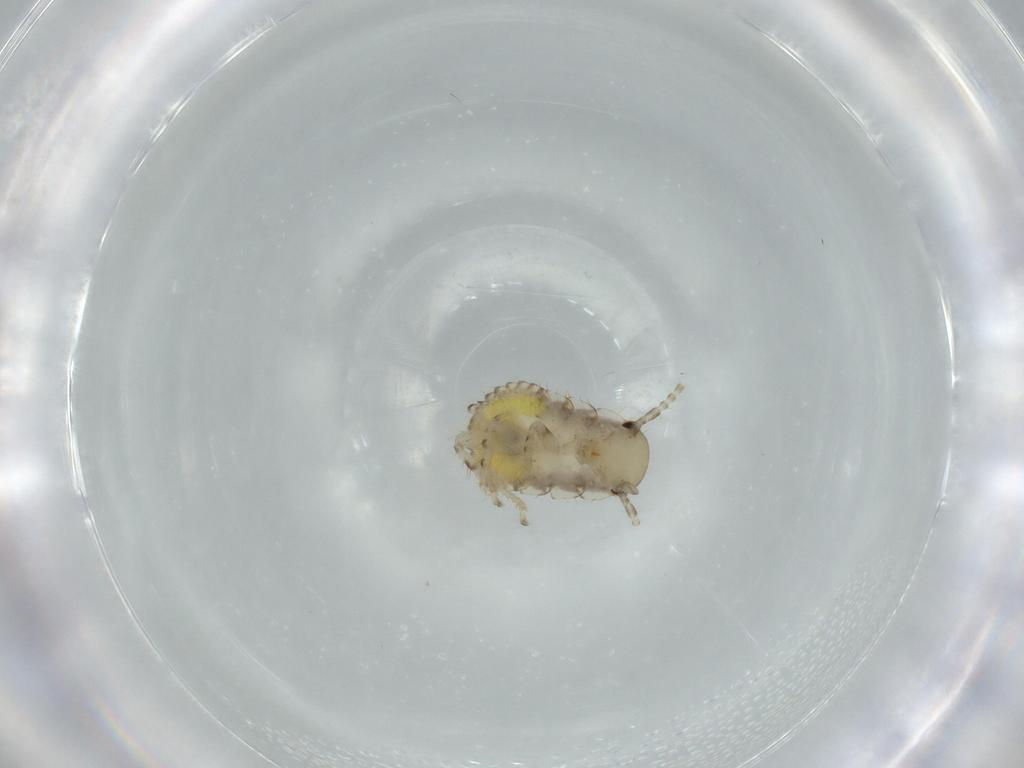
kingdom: Animalia
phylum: Arthropoda
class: Insecta
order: Blattodea
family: Ectobiidae
